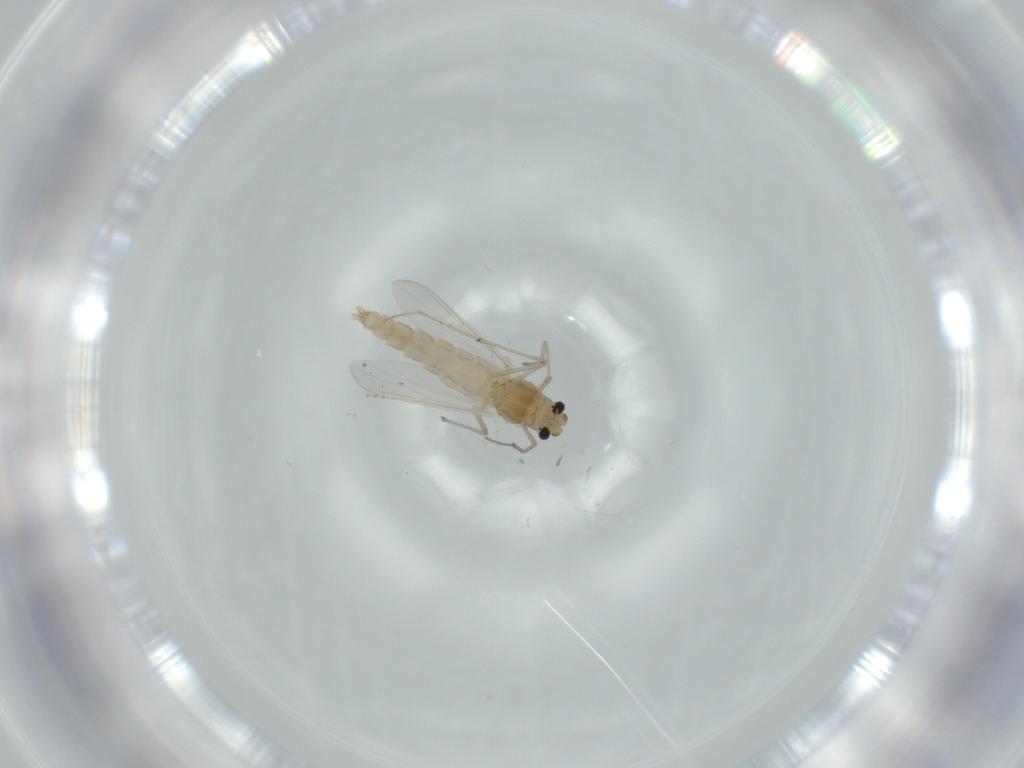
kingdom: Animalia
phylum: Arthropoda
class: Insecta
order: Diptera
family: Chironomidae
